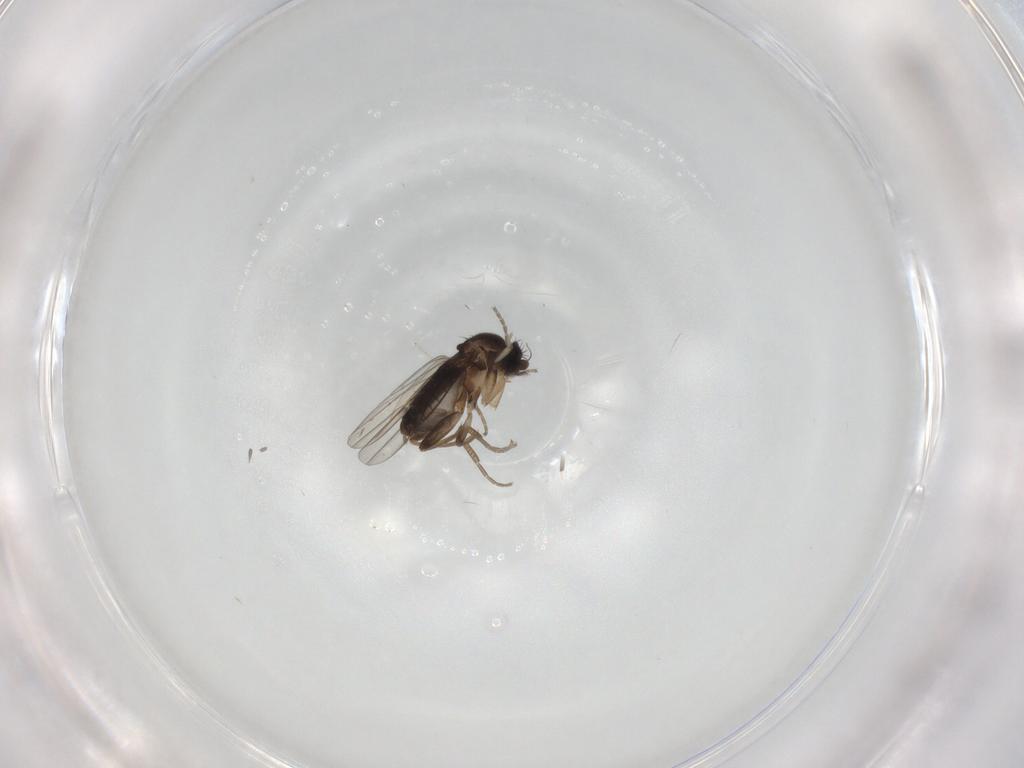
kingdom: Animalia
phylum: Arthropoda
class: Insecta
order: Diptera
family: Phoridae
